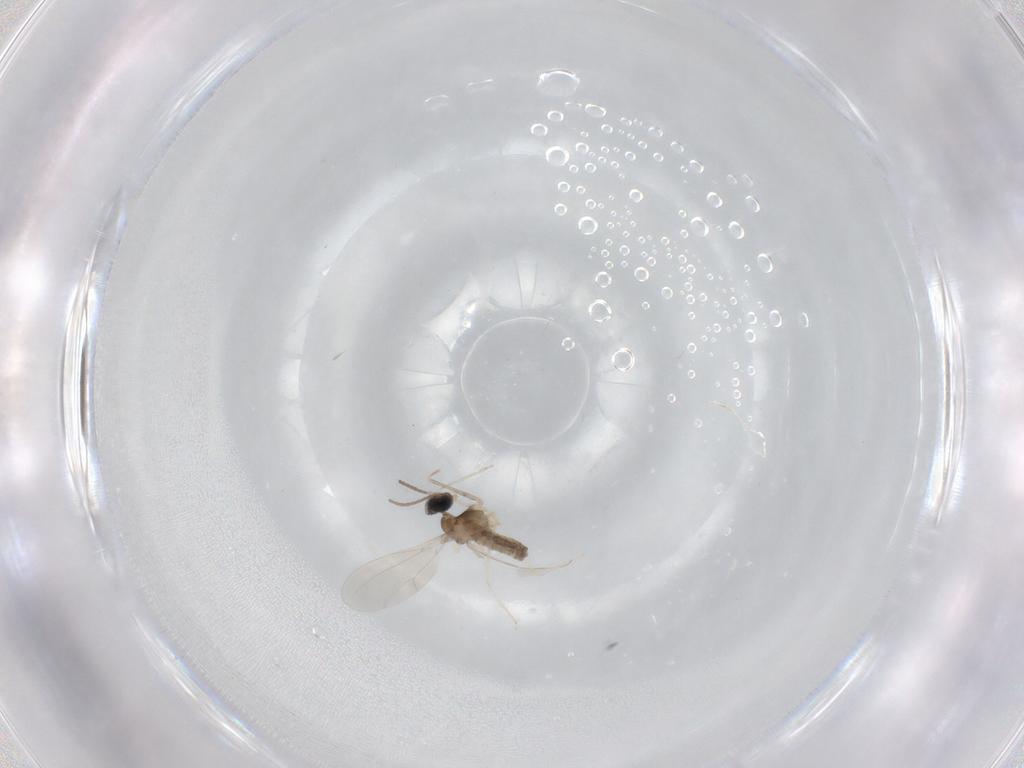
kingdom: Animalia
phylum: Arthropoda
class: Insecta
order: Diptera
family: Cecidomyiidae
